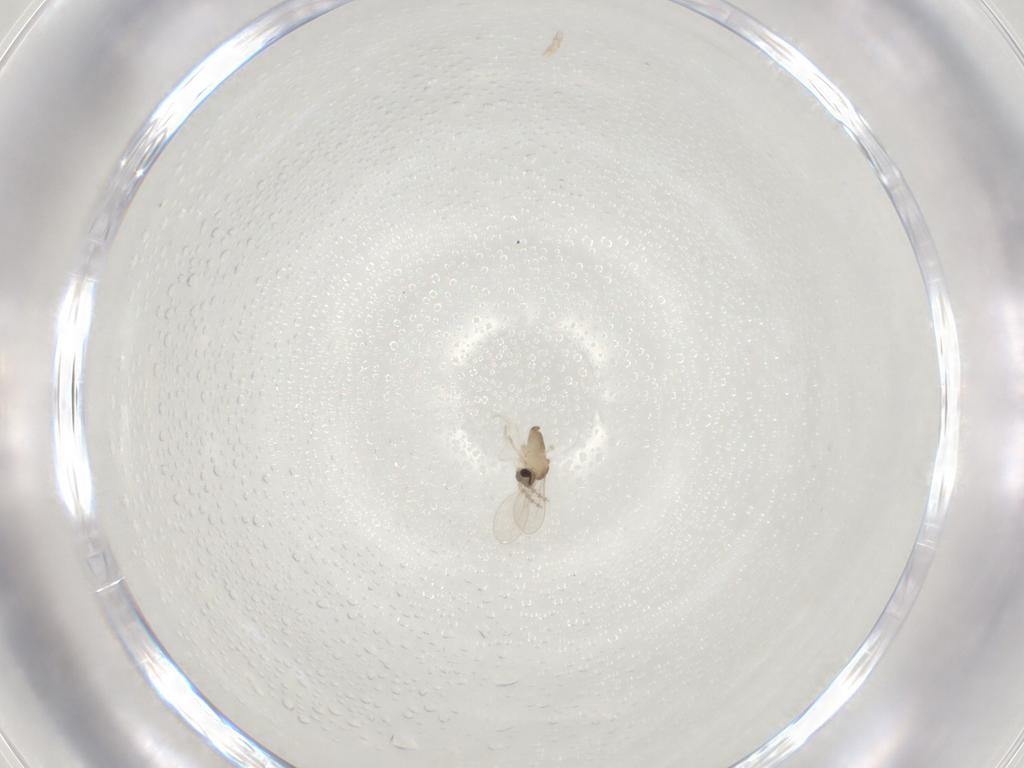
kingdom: Animalia
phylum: Arthropoda
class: Insecta
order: Diptera
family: Cecidomyiidae
